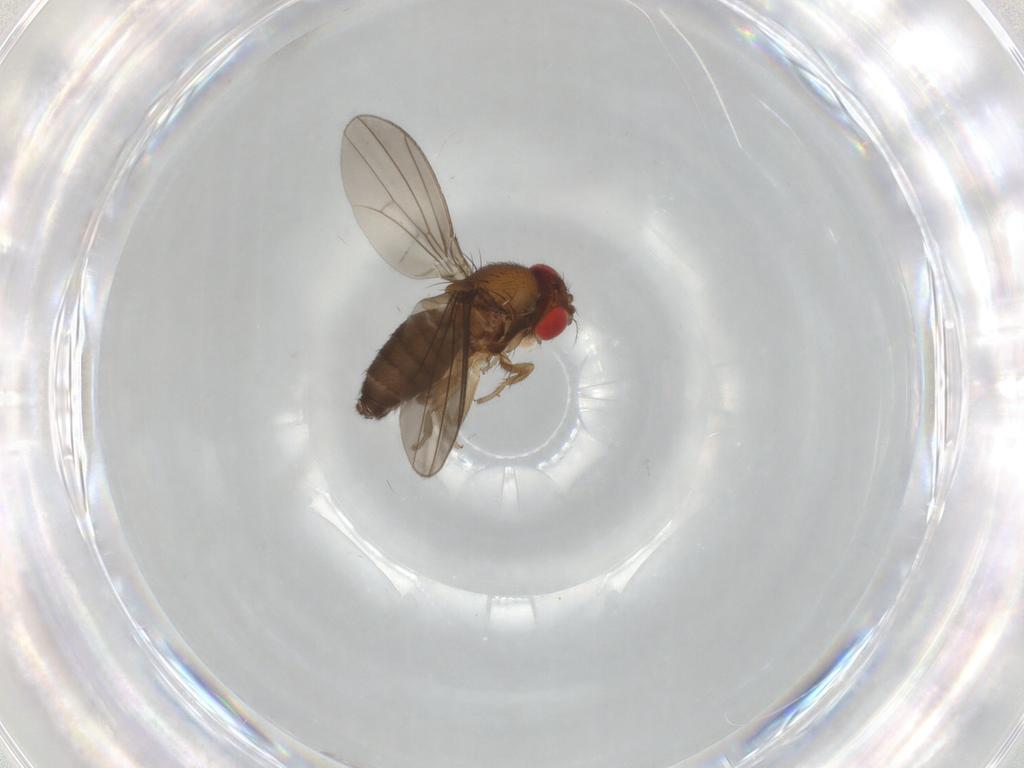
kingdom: Animalia
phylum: Arthropoda
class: Insecta
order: Diptera
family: Drosophilidae
